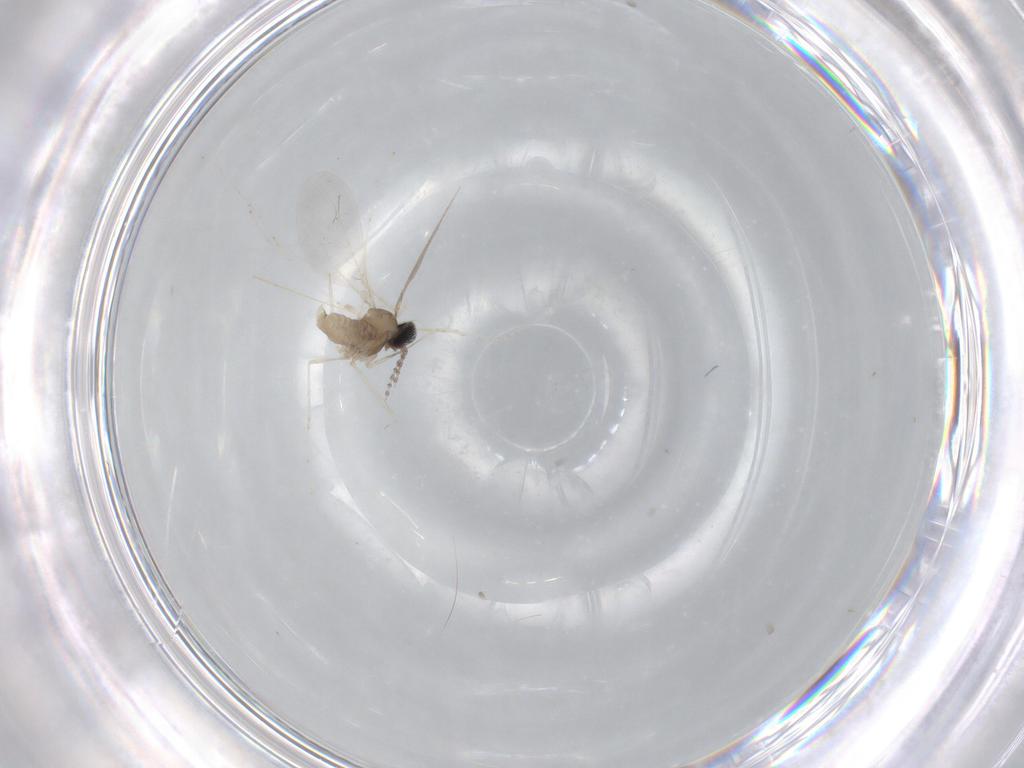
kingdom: Animalia
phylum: Arthropoda
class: Insecta
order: Diptera
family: Cecidomyiidae
